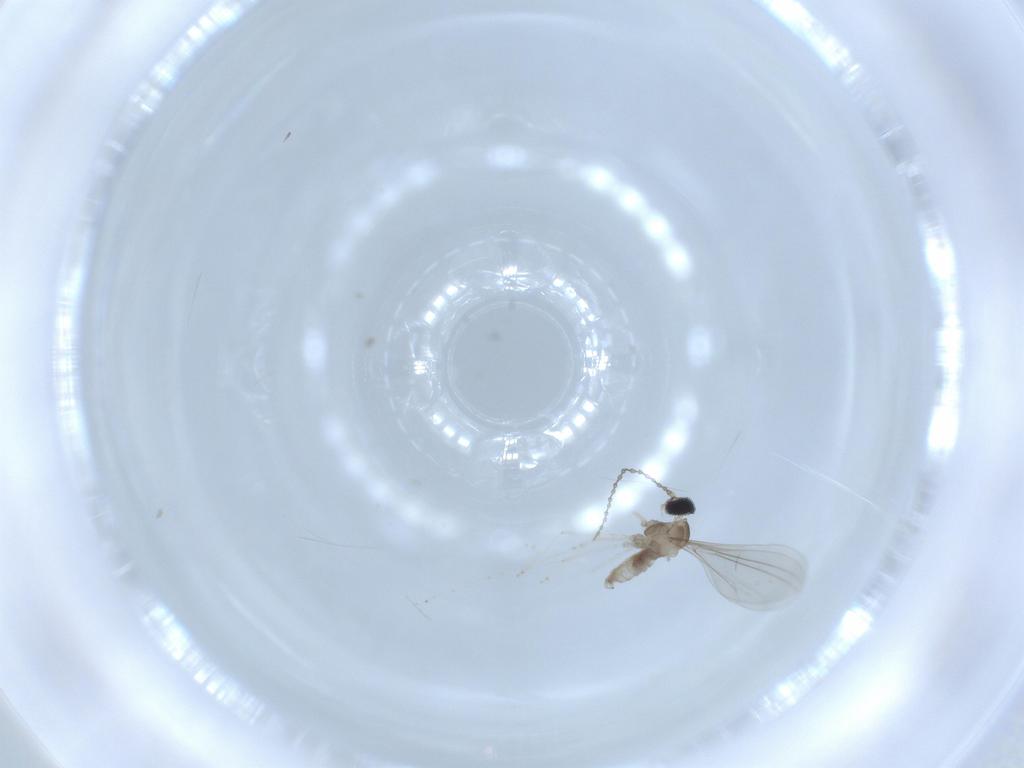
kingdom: Animalia
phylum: Arthropoda
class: Insecta
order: Diptera
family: Cecidomyiidae
